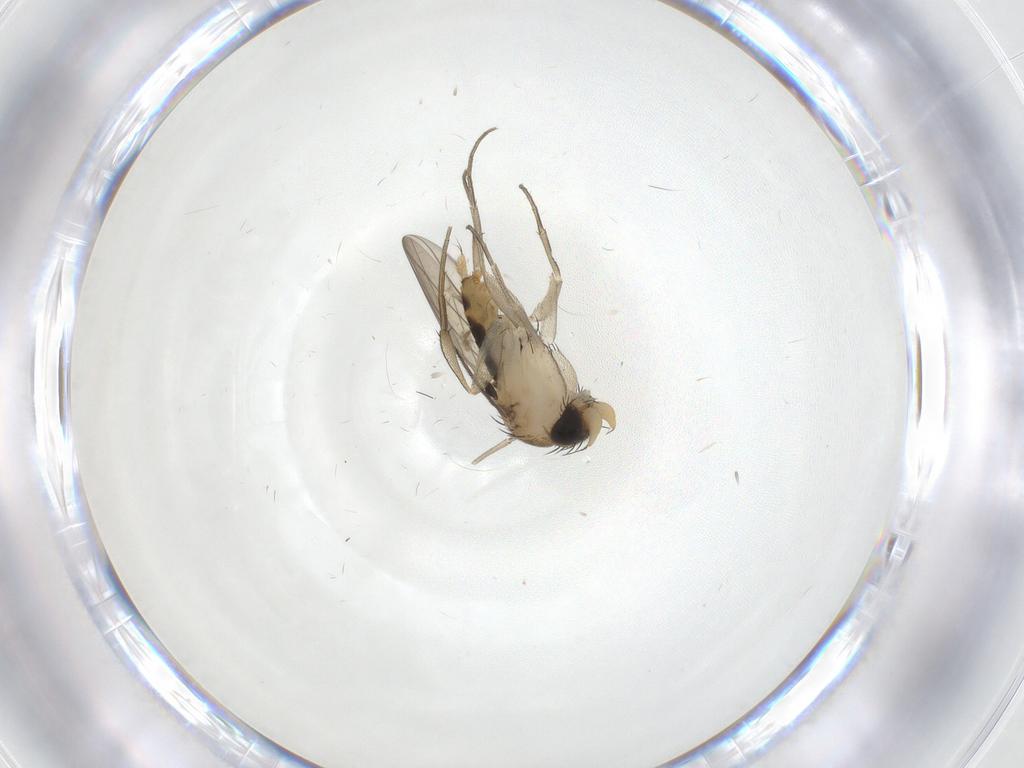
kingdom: Animalia
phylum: Arthropoda
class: Insecta
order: Diptera
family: Phoridae
